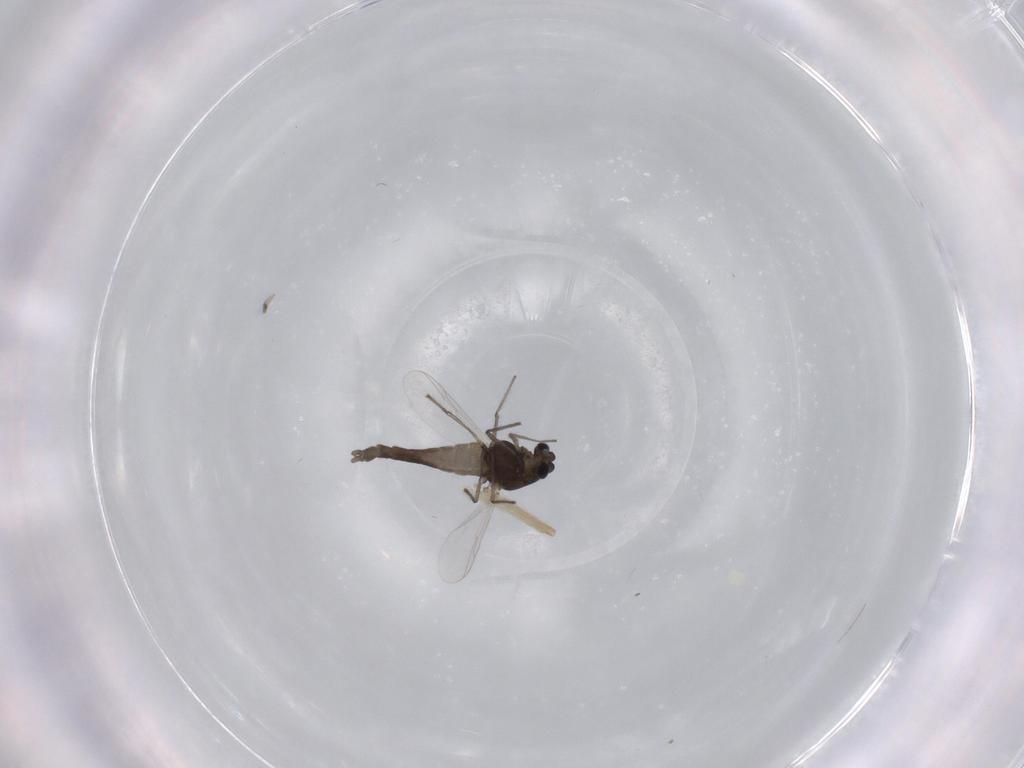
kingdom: Animalia
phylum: Arthropoda
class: Insecta
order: Diptera
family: Chironomidae
